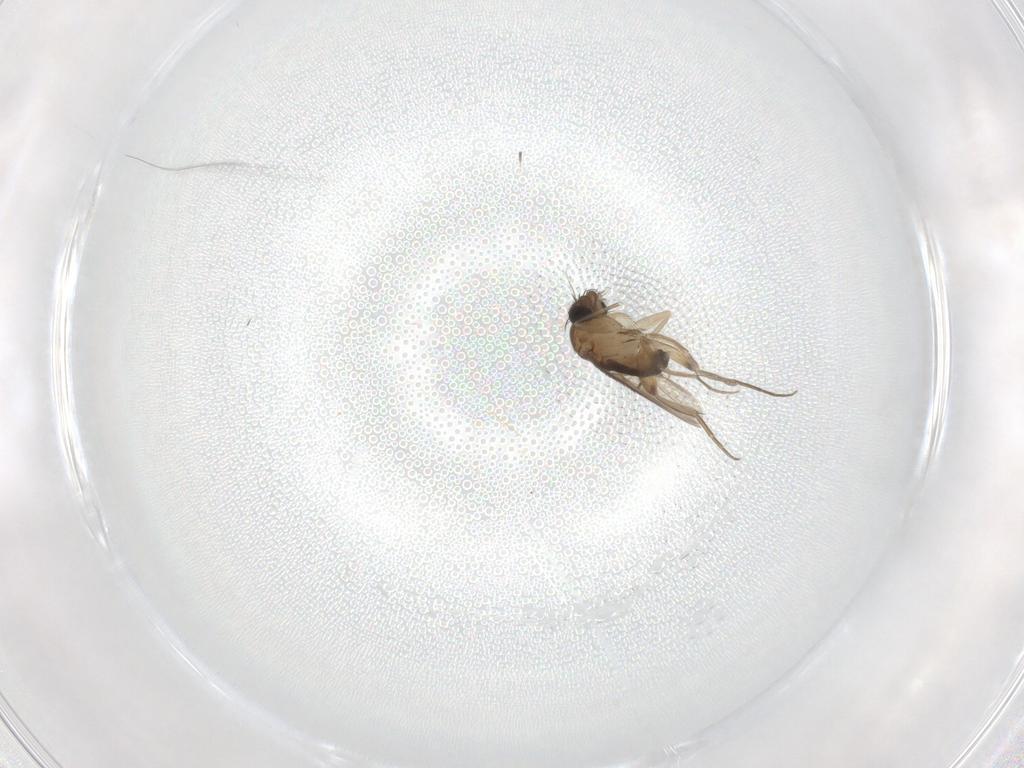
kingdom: Animalia
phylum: Arthropoda
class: Insecta
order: Diptera
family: Phoridae
